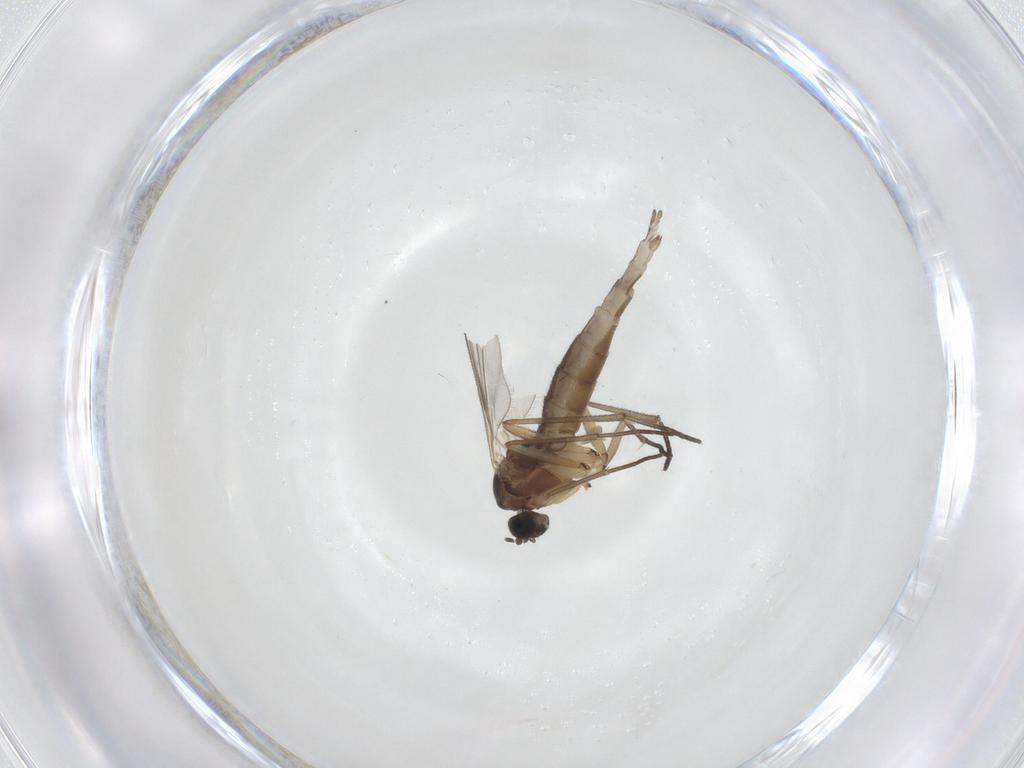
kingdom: Animalia
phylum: Arthropoda
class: Insecta
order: Diptera
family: Sciaridae
